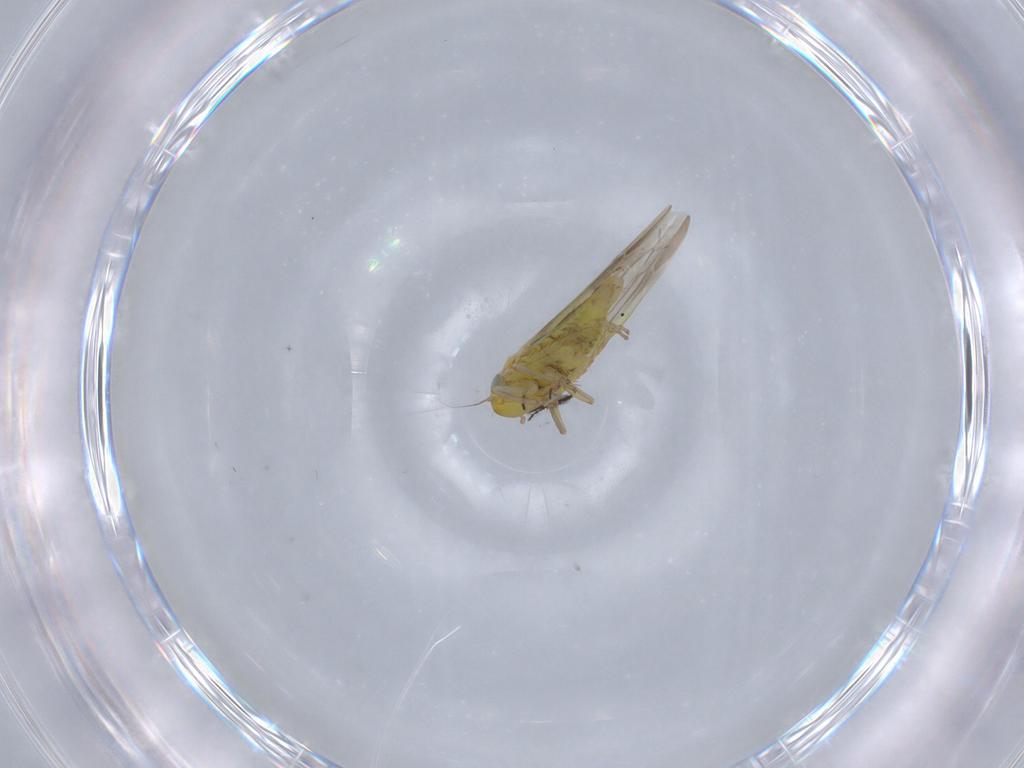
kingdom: Animalia
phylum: Arthropoda
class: Insecta
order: Hemiptera
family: Cicadellidae
